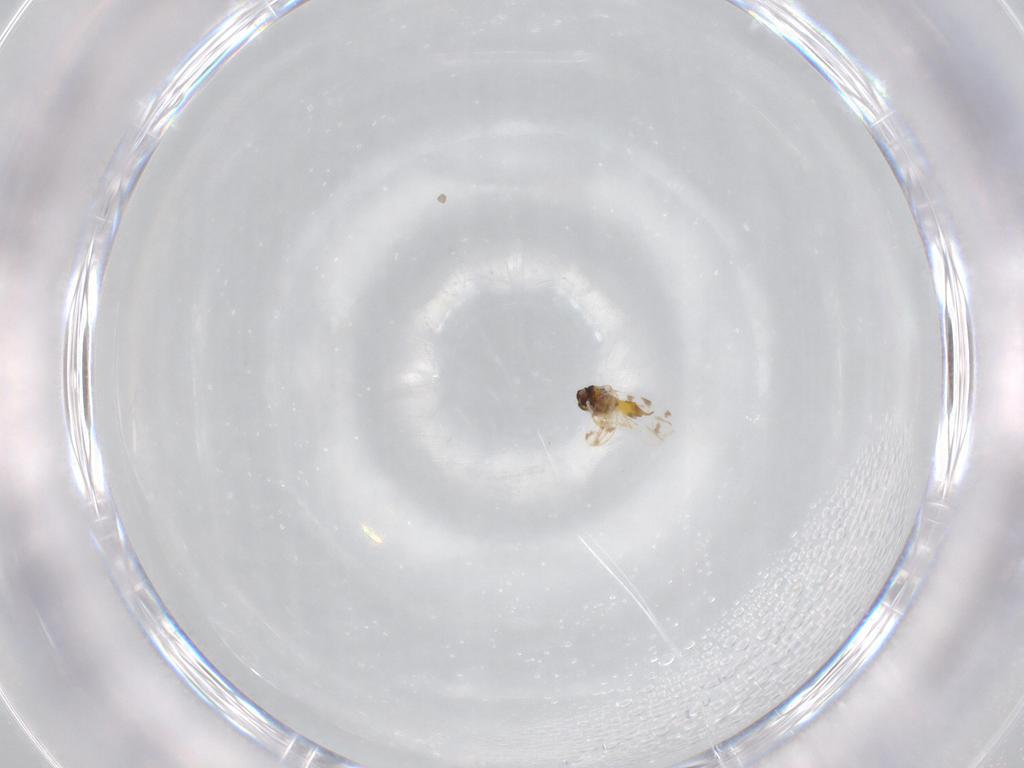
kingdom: Animalia
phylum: Arthropoda
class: Insecta
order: Hemiptera
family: Aleyrodidae
